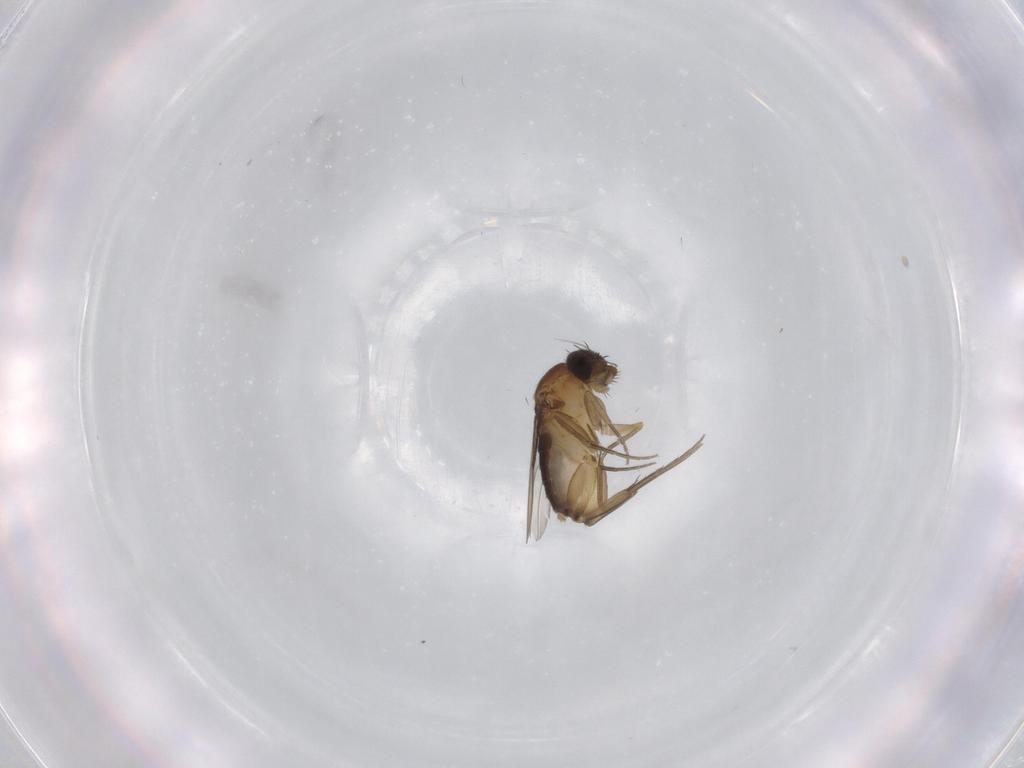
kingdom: Animalia
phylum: Arthropoda
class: Insecta
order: Diptera
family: Phoridae
